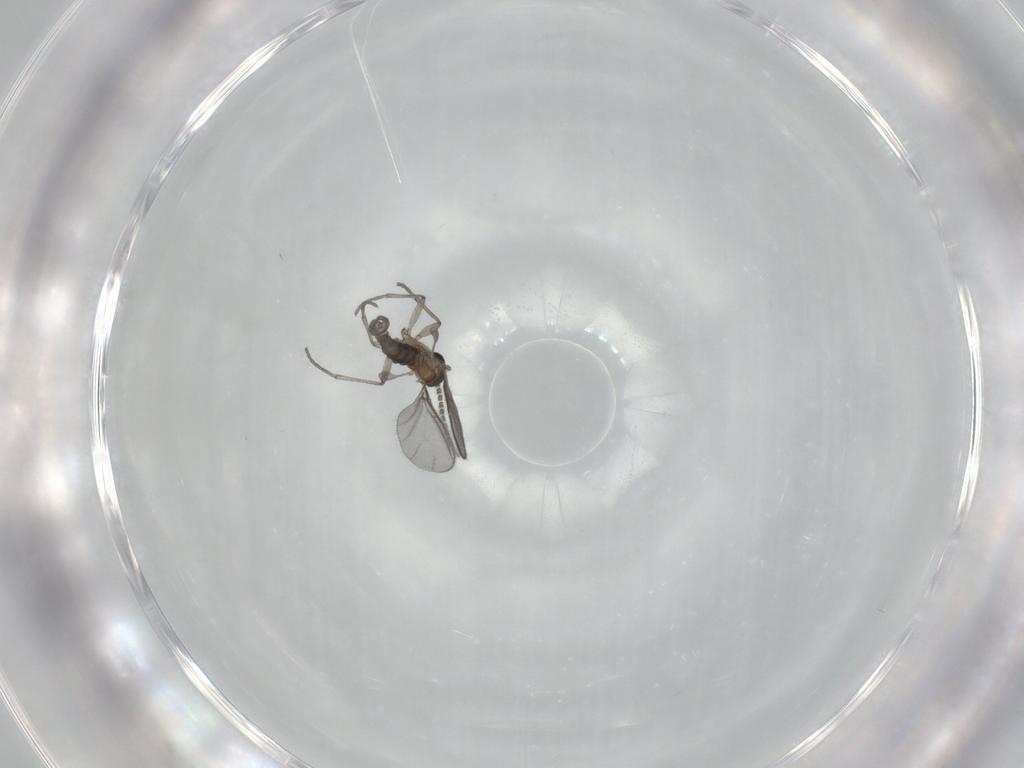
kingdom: Animalia
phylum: Arthropoda
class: Insecta
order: Diptera
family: Sciaridae
